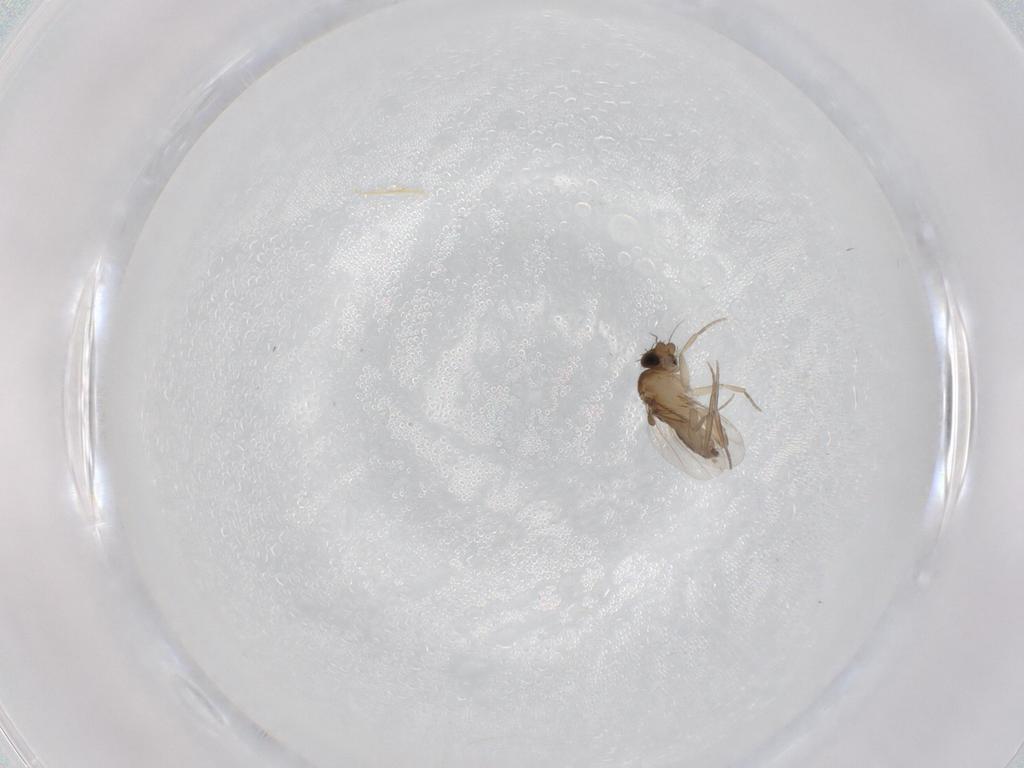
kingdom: Animalia
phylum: Arthropoda
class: Insecta
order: Diptera
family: Phoridae
